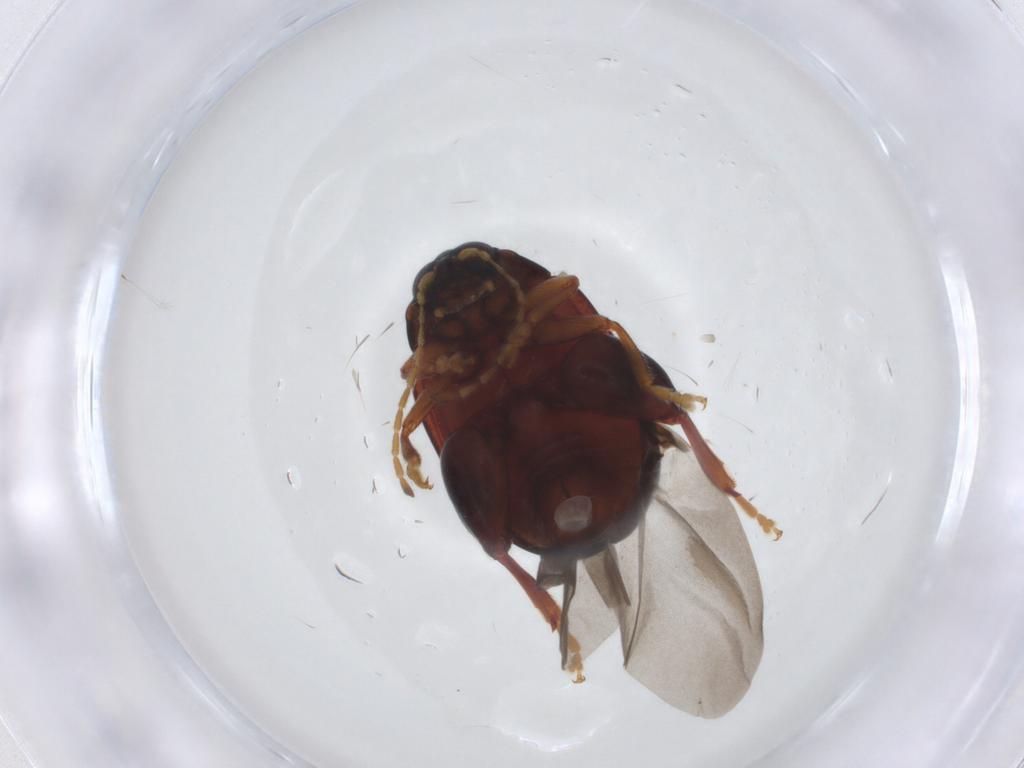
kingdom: Animalia
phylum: Arthropoda
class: Insecta
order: Coleoptera
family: Chrysomelidae
